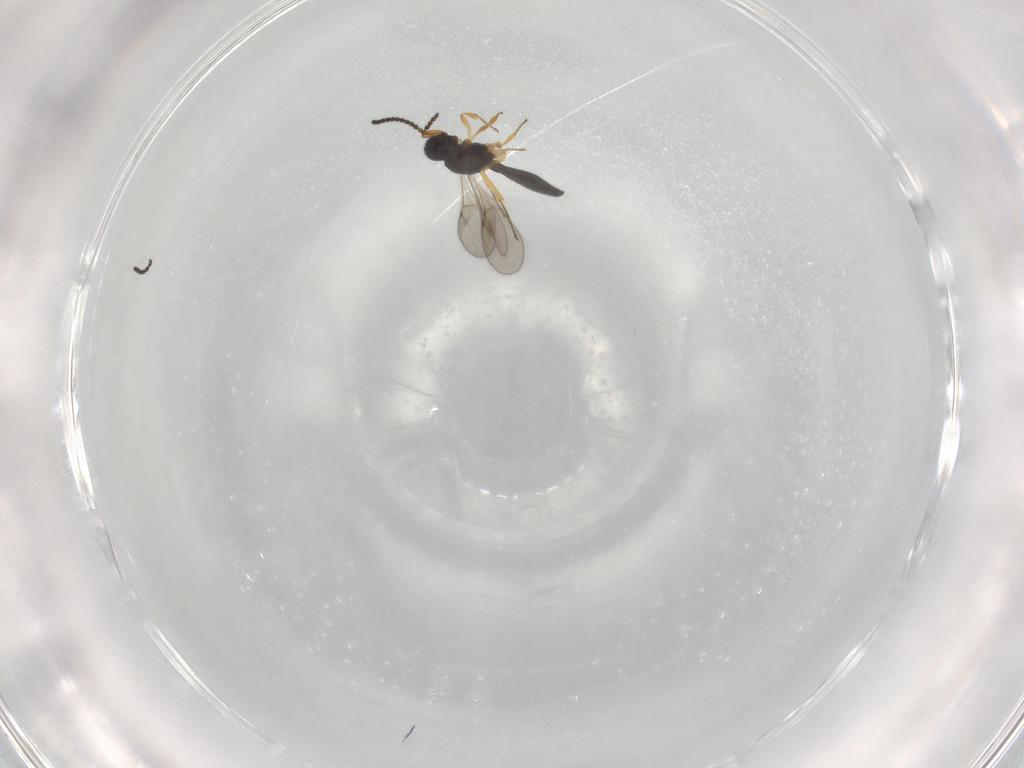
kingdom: Animalia
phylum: Arthropoda
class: Insecta
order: Hymenoptera
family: Scelionidae
